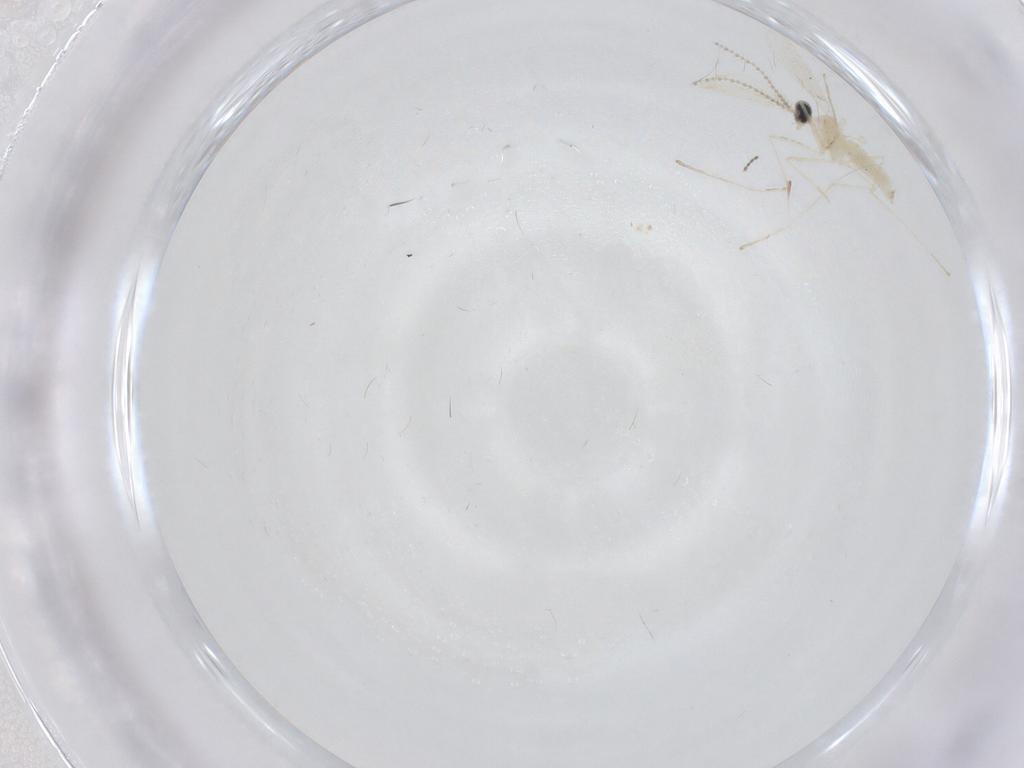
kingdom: Animalia
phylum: Arthropoda
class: Insecta
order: Diptera
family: Cecidomyiidae
